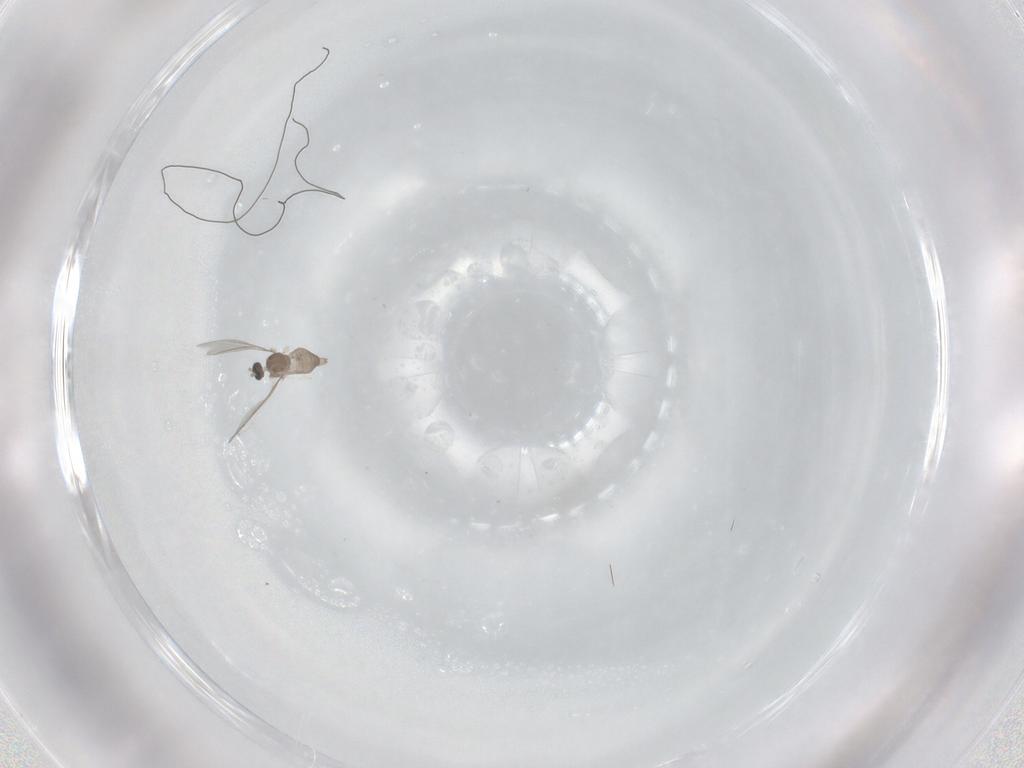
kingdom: Animalia
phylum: Arthropoda
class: Insecta
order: Diptera
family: Cecidomyiidae
